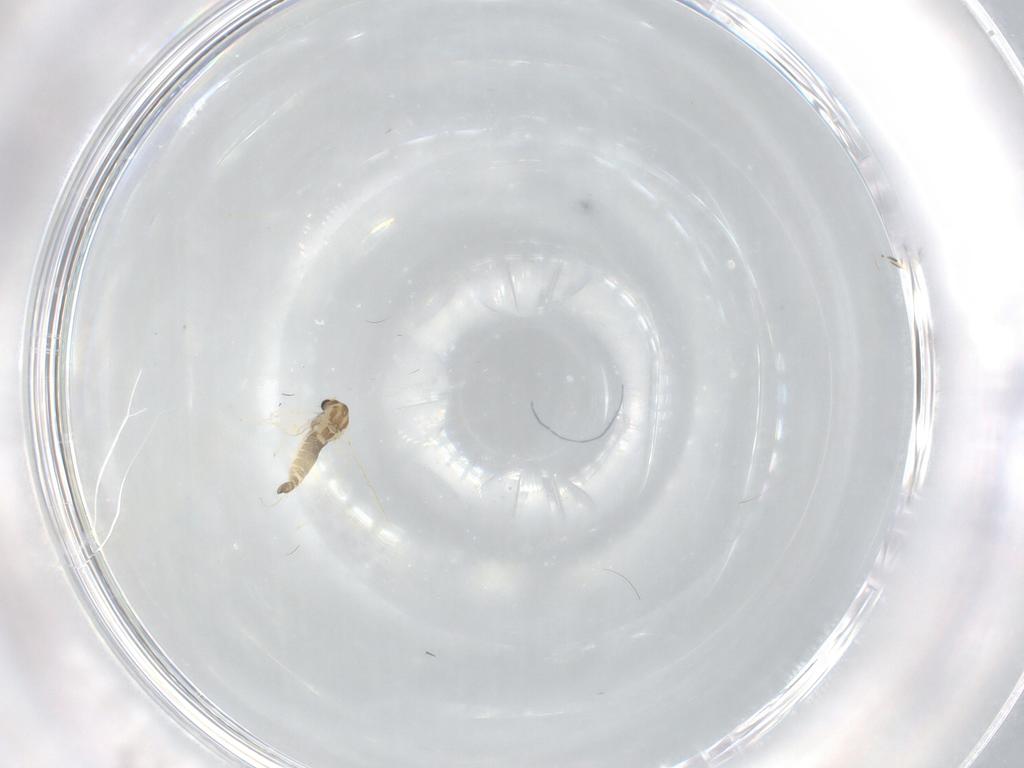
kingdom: Animalia
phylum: Arthropoda
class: Insecta
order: Diptera
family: Chironomidae
